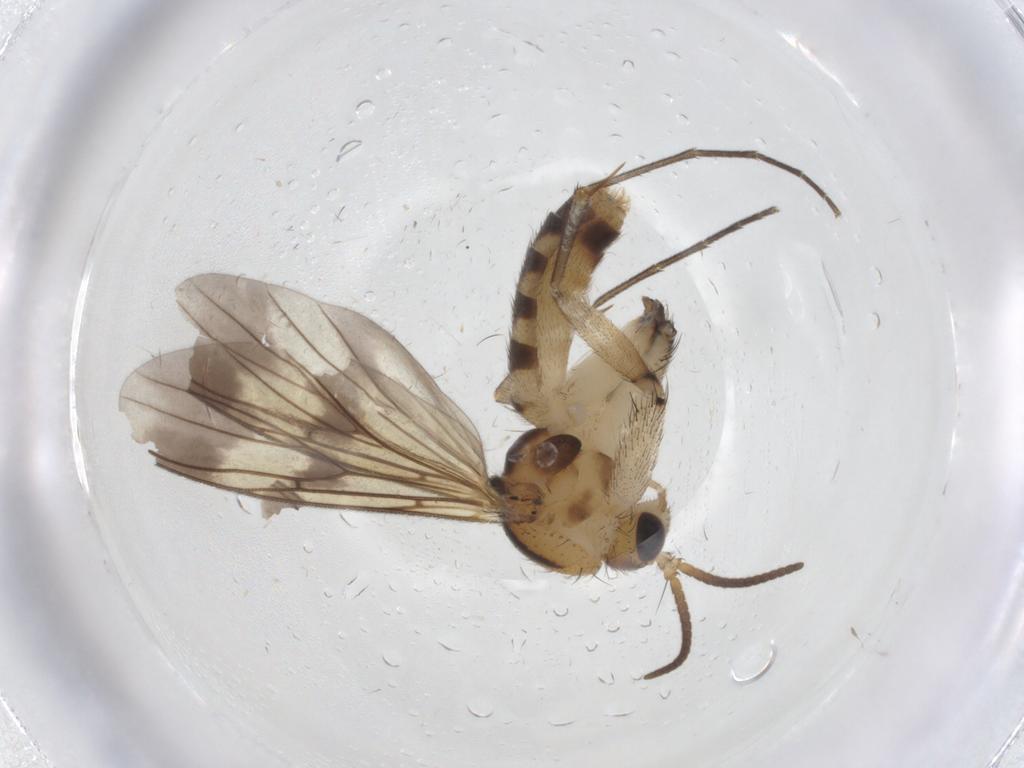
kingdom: Animalia
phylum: Arthropoda
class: Insecta
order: Diptera
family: Mycetophilidae
